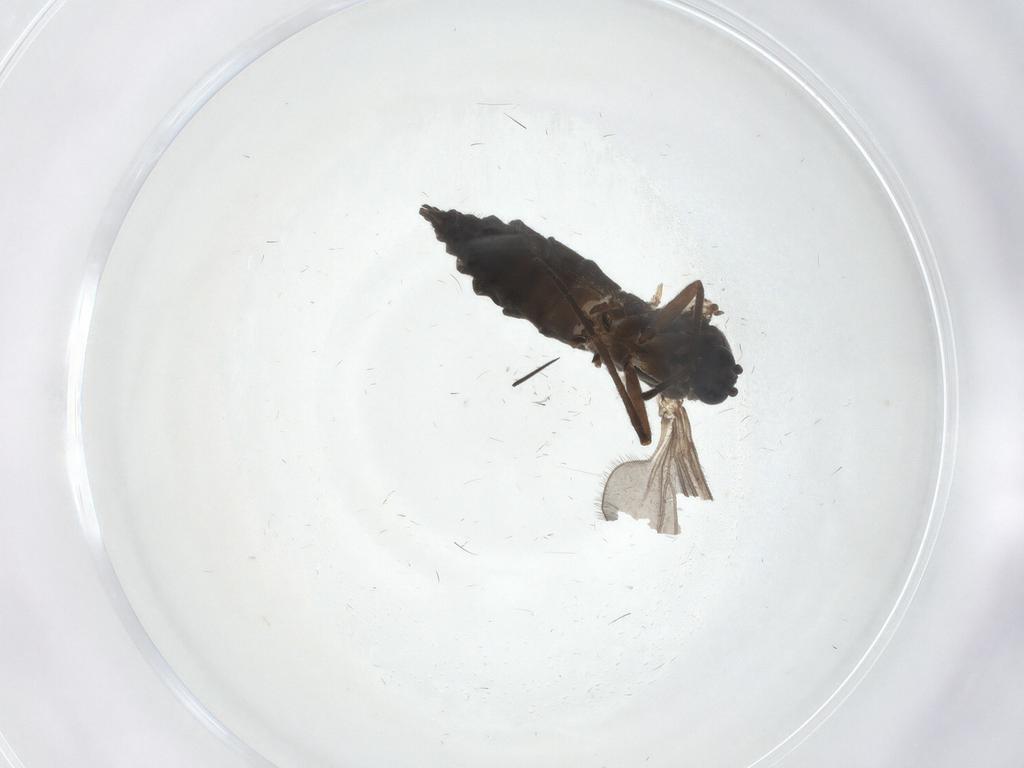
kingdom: Animalia
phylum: Arthropoda
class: Insecta
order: Diptera
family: Sciaridae
